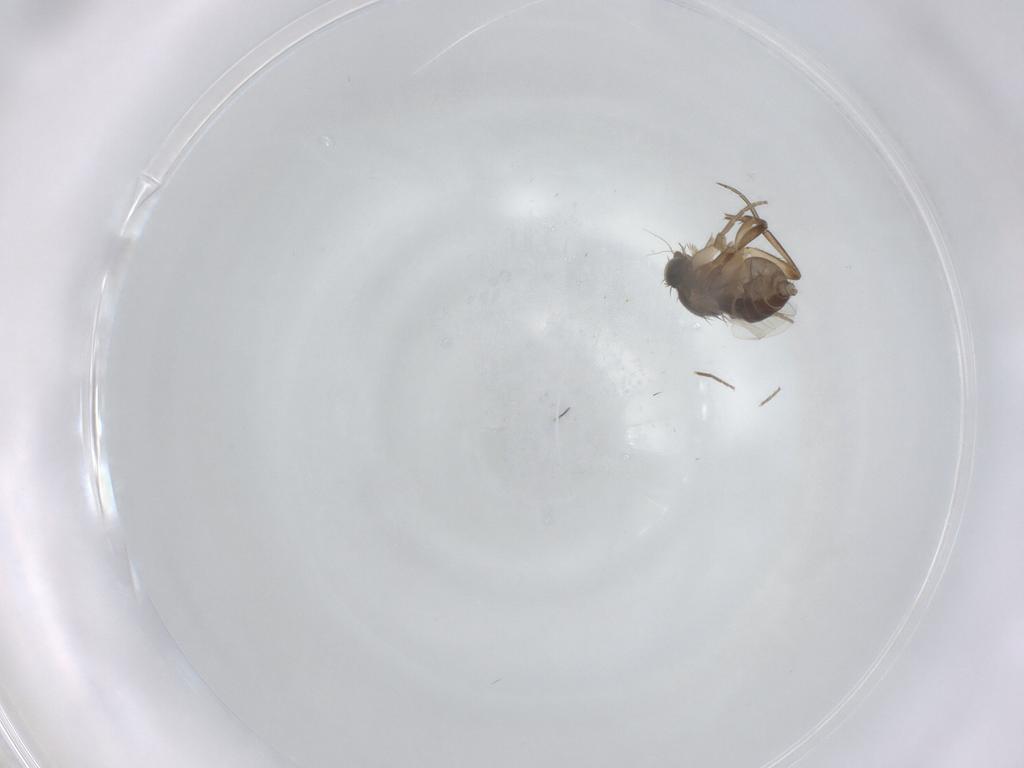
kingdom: Animalia
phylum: Arthropoda
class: Insecta
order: Diptera
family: Phoridae
